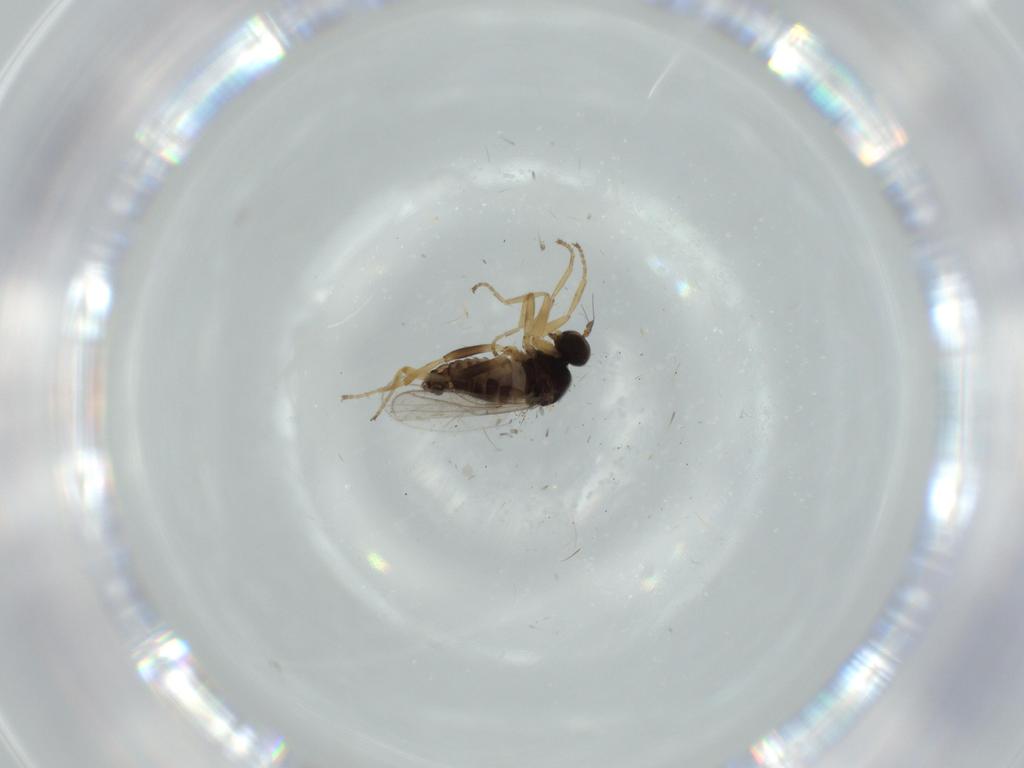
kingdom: Animalia
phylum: Arthropoda
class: Insecta
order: Diptera
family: Hybotidae
